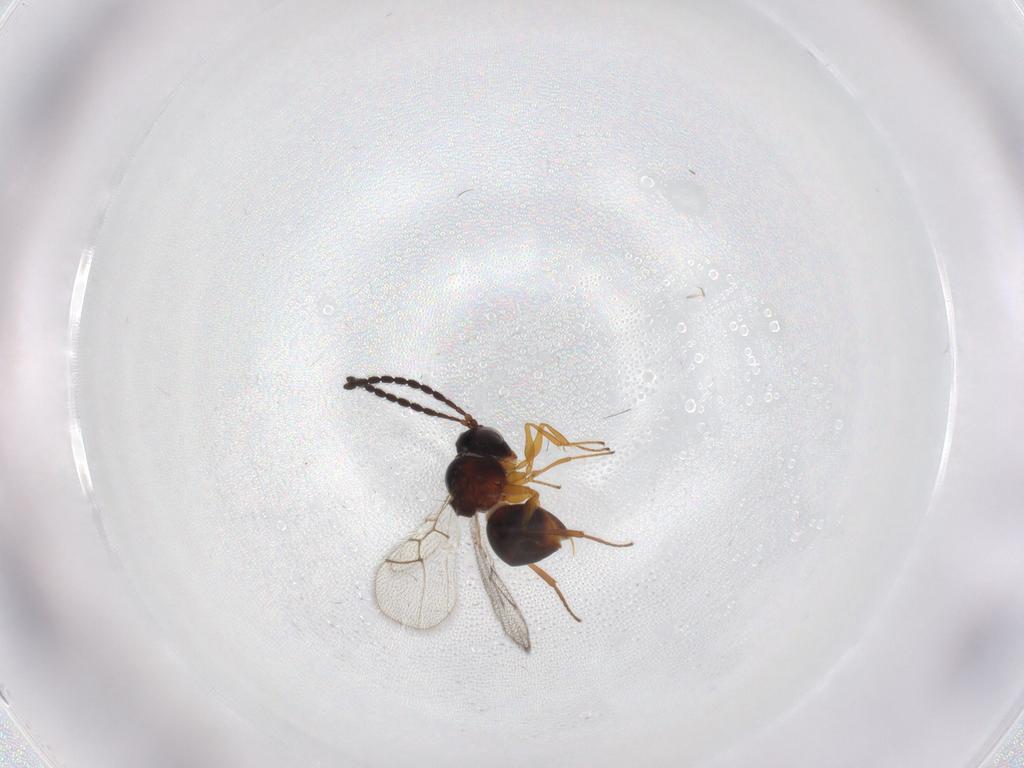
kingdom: Animalia
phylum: Arthropoda
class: Insecta
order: Hymenoptera
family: Figitidae
